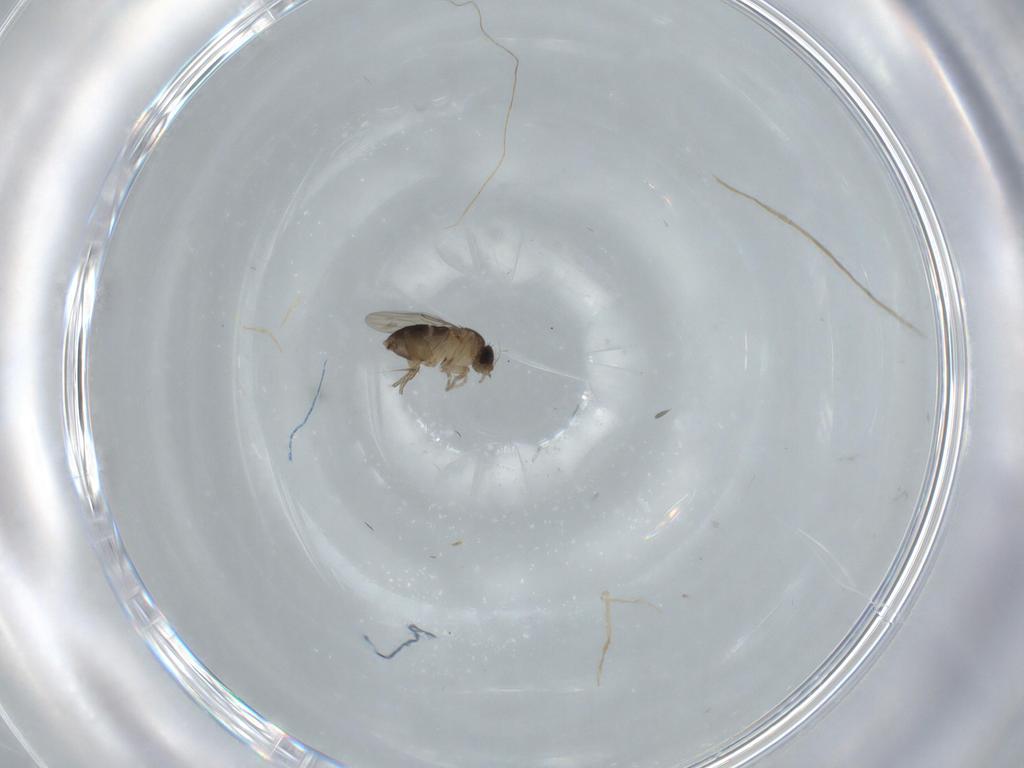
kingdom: Animalia
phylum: Arthropoda
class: Insecta
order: Diptera
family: Phoridae
